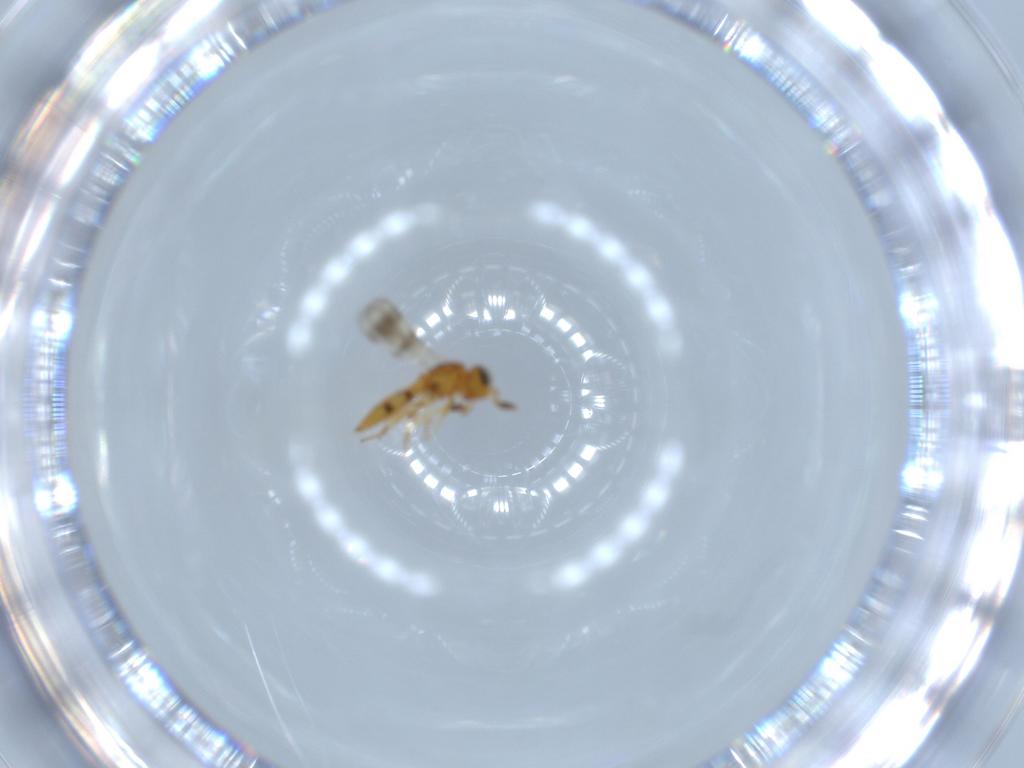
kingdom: Animalia
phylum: Arthropoda
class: Insecta
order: Hymenoptera
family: Scelionidae
